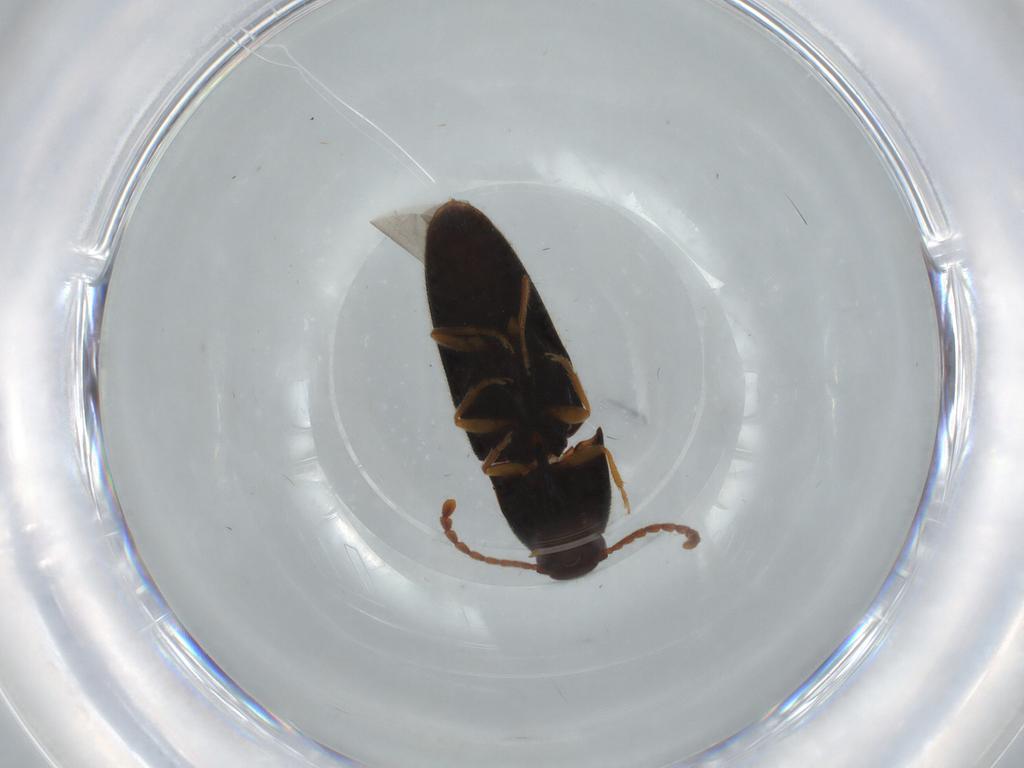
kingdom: Animalia
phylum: Arthropoda
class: Insecta
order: Coleoptera
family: Elateridae
